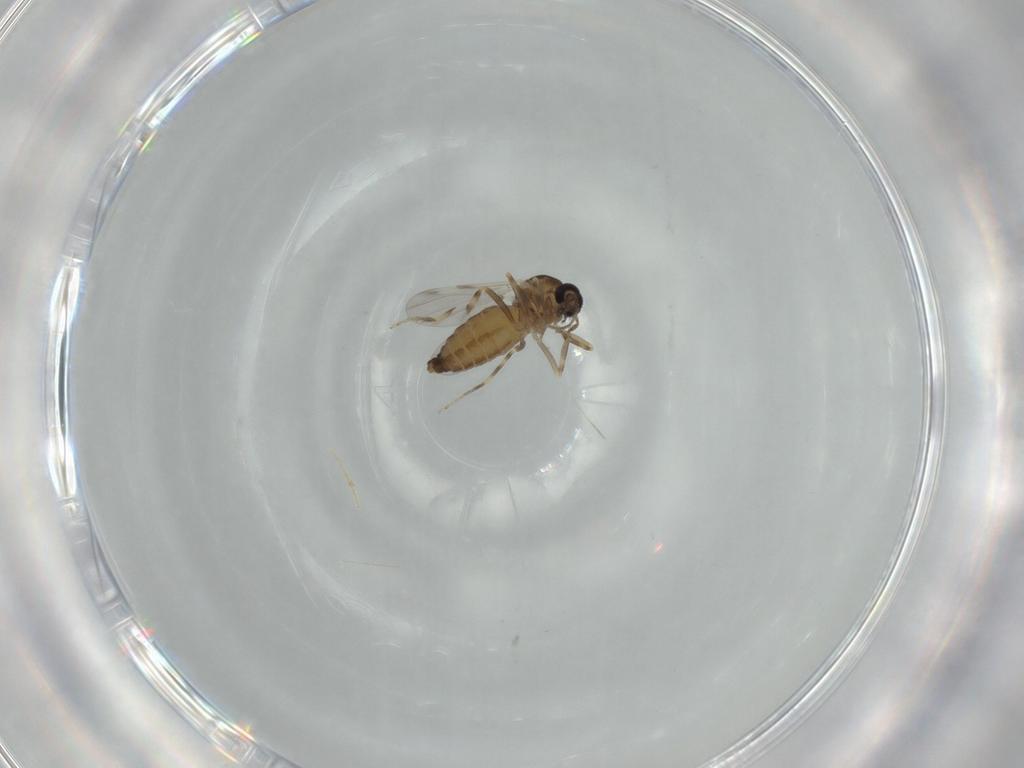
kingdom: Animalia
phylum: Arthropoda
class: Insecta
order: Diptera
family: Ceratopogonidae
